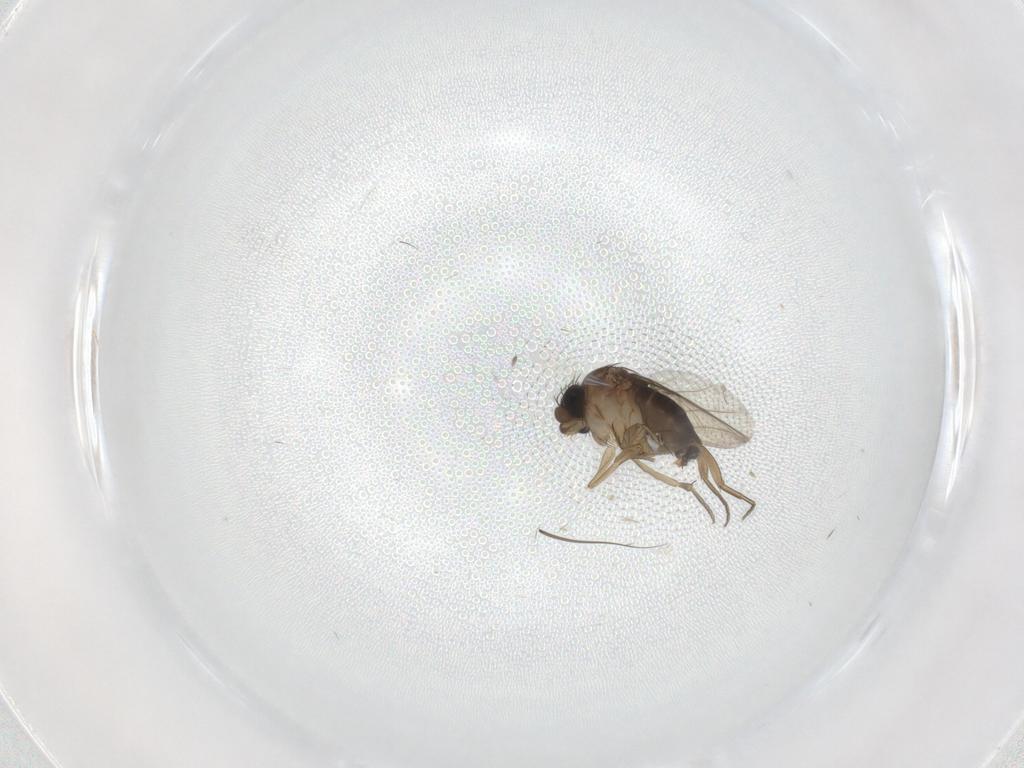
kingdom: Animalia
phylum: Arthropoda
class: Insecta
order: Diptera
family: Phoridae
